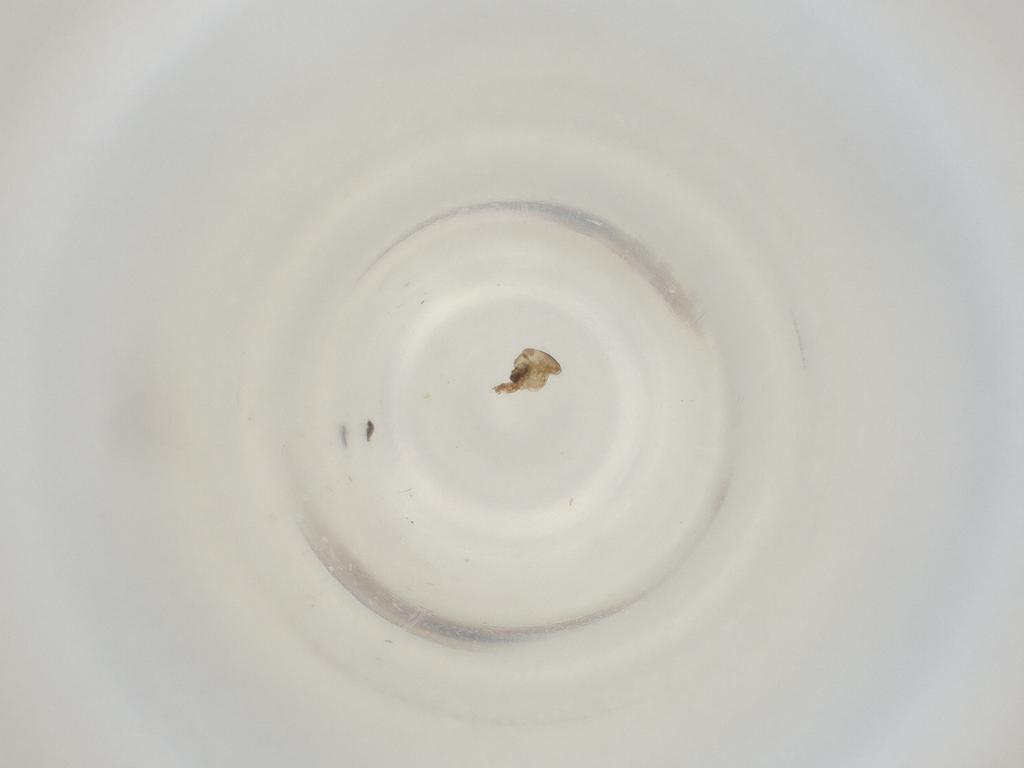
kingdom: Animalia
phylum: Arthropoda
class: Insecta
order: Diptera
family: Cecidomyiidae
